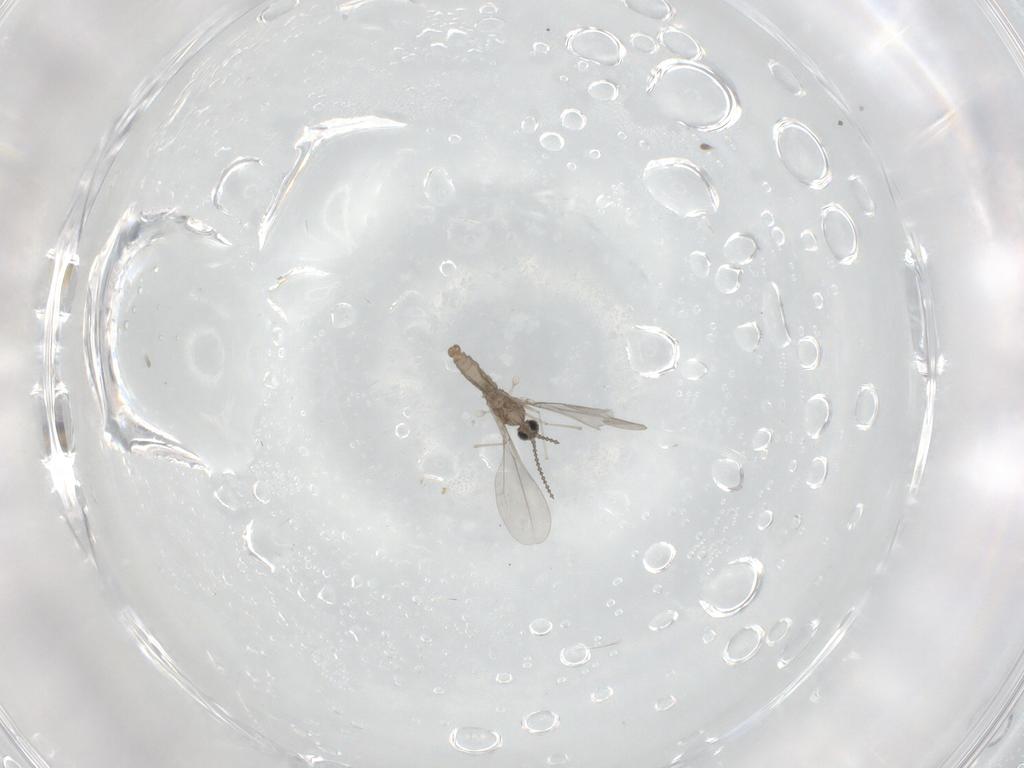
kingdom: Animalia
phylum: Arthropoda
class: Insecta
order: Diptera
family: Cecidomyiidae
